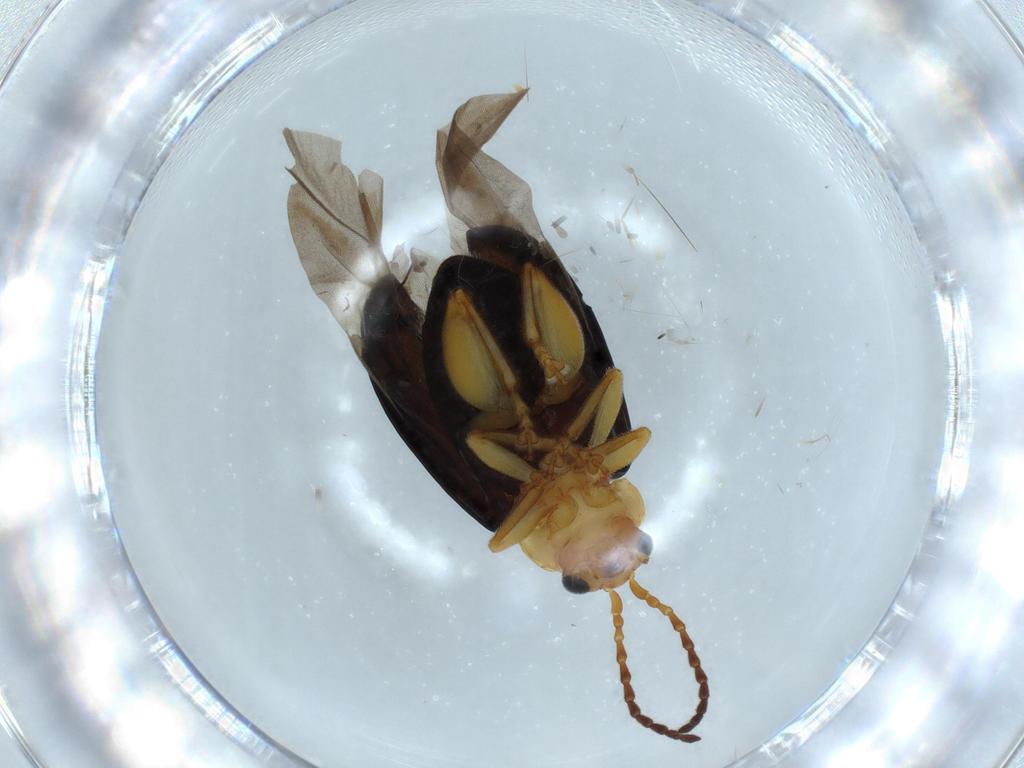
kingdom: Animalia
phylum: Arthropoda
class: Insecta
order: Coleoptera
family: Chrysomelidae
